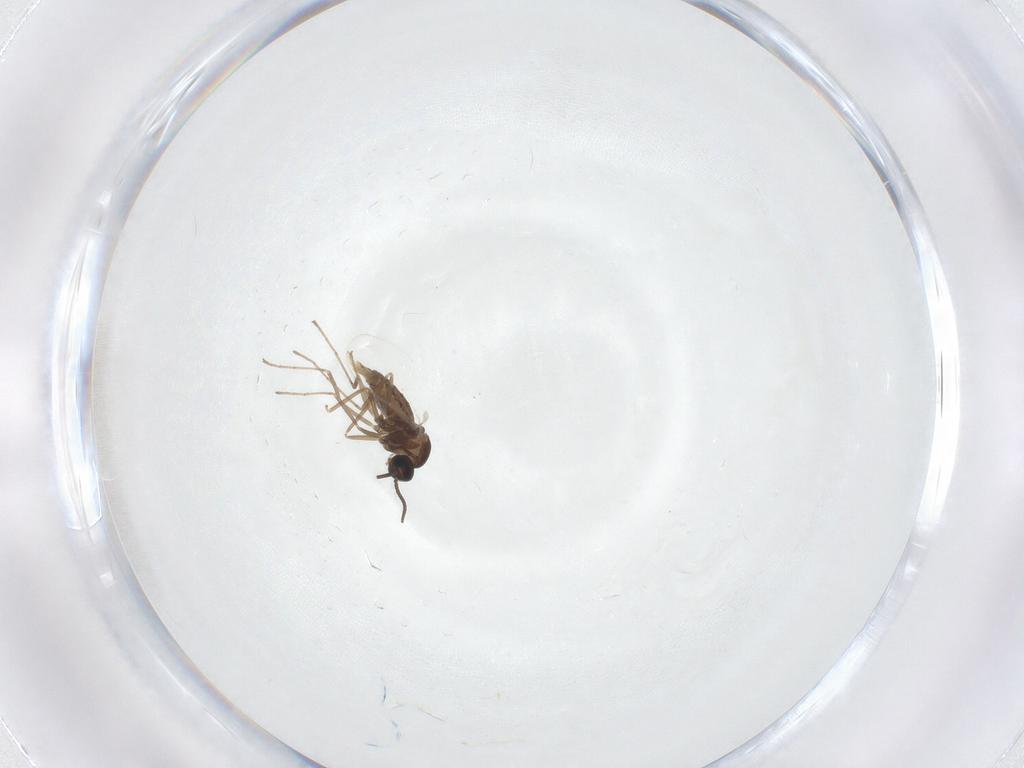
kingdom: Animalia
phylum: Arthropoda
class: Insecta
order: Diptera
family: Cecidomyiidae
